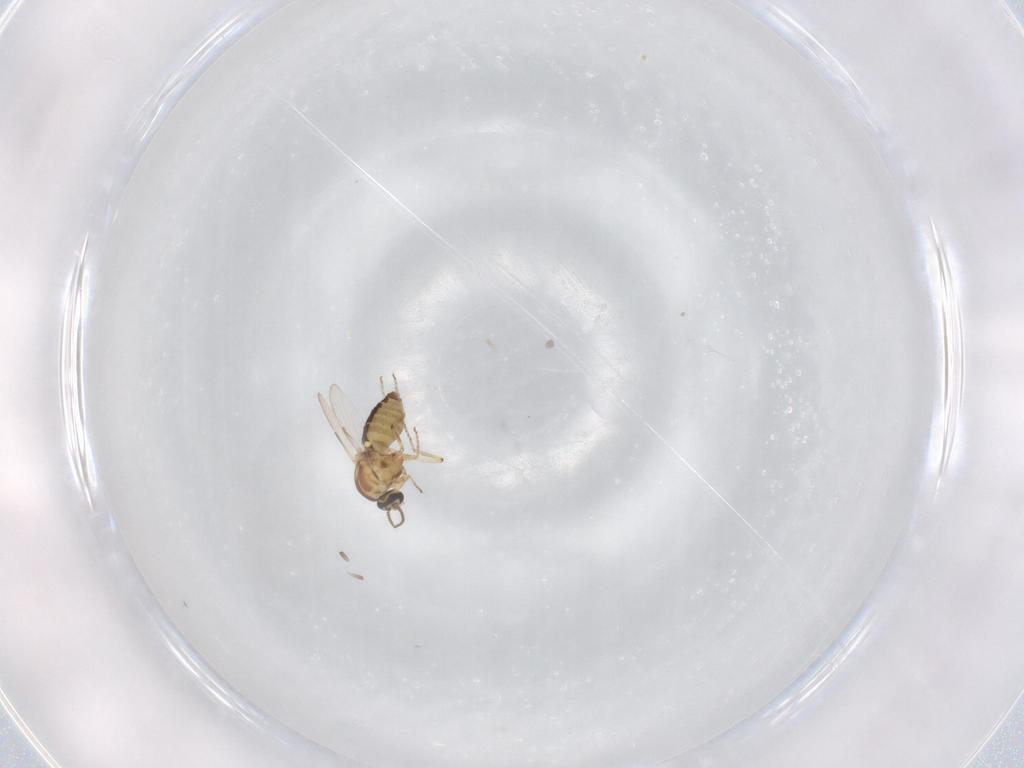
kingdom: Animalia
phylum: Arthropoda
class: Insecta
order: Diptera
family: Ceratopogonidae
